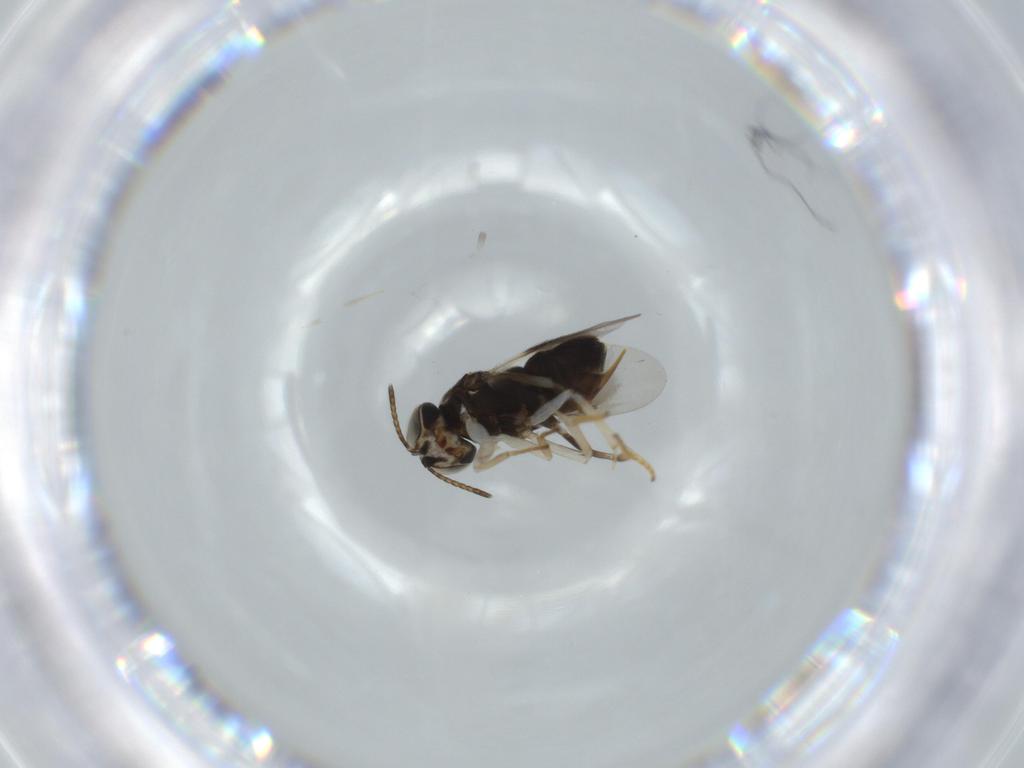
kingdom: Animalia
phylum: Arthropoda
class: Insecta
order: Hymenoptera
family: Formicidae
